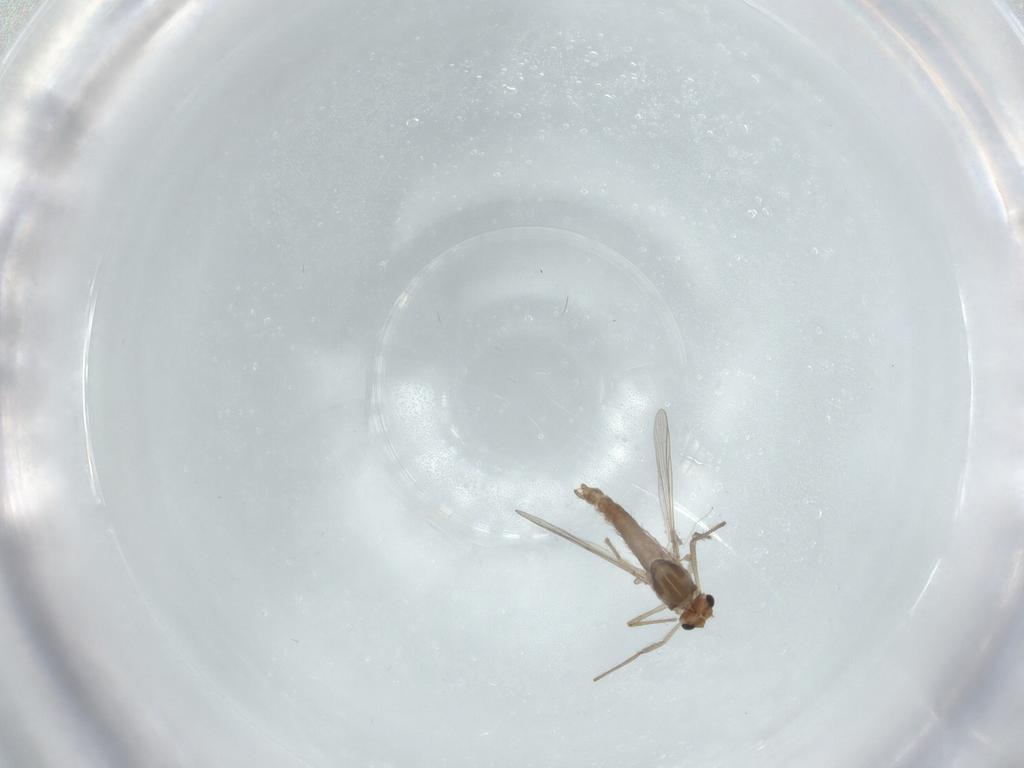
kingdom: Animalia
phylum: Arthropoda
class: Insecta
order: Diptera
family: Chironomidae
